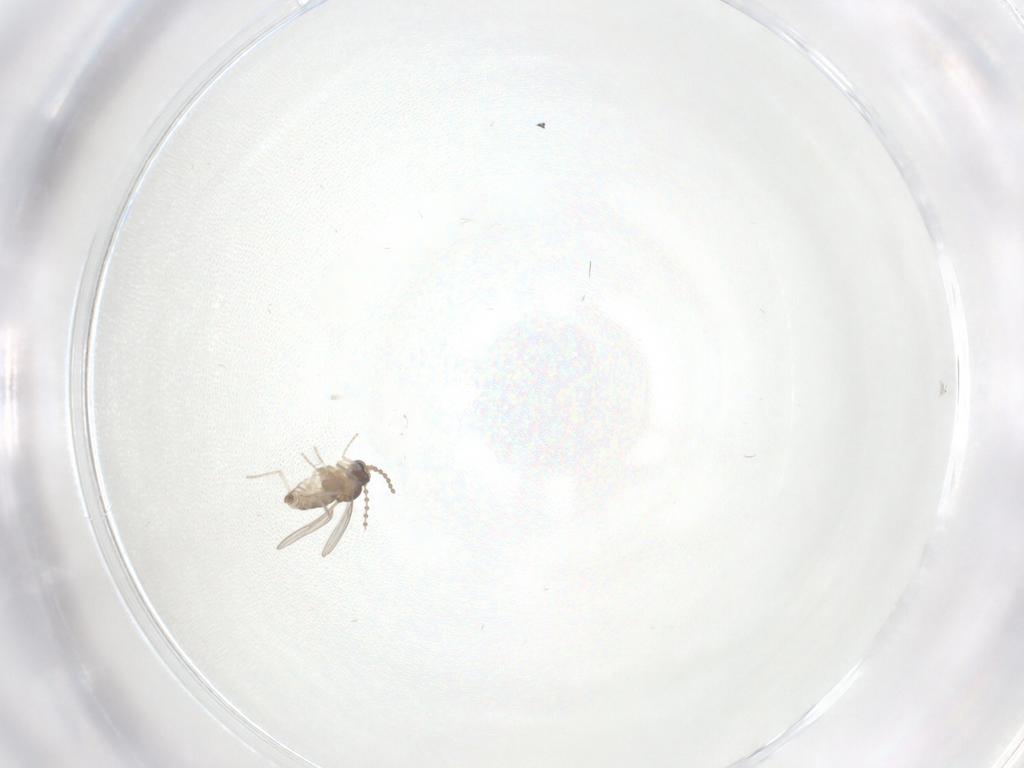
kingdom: Animalia
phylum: Arthropoda
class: Insecta
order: Diptera
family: Cecidomyiidae
